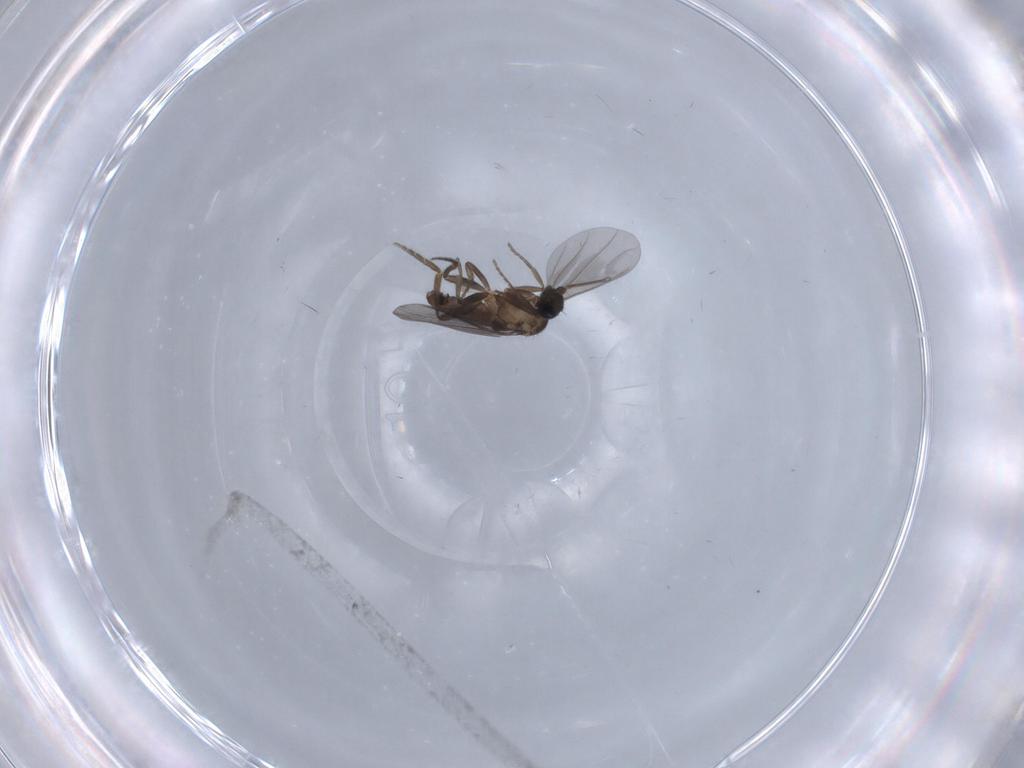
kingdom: Animalia
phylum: Arthropoda
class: Insecta
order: Diptera
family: Phoridae
